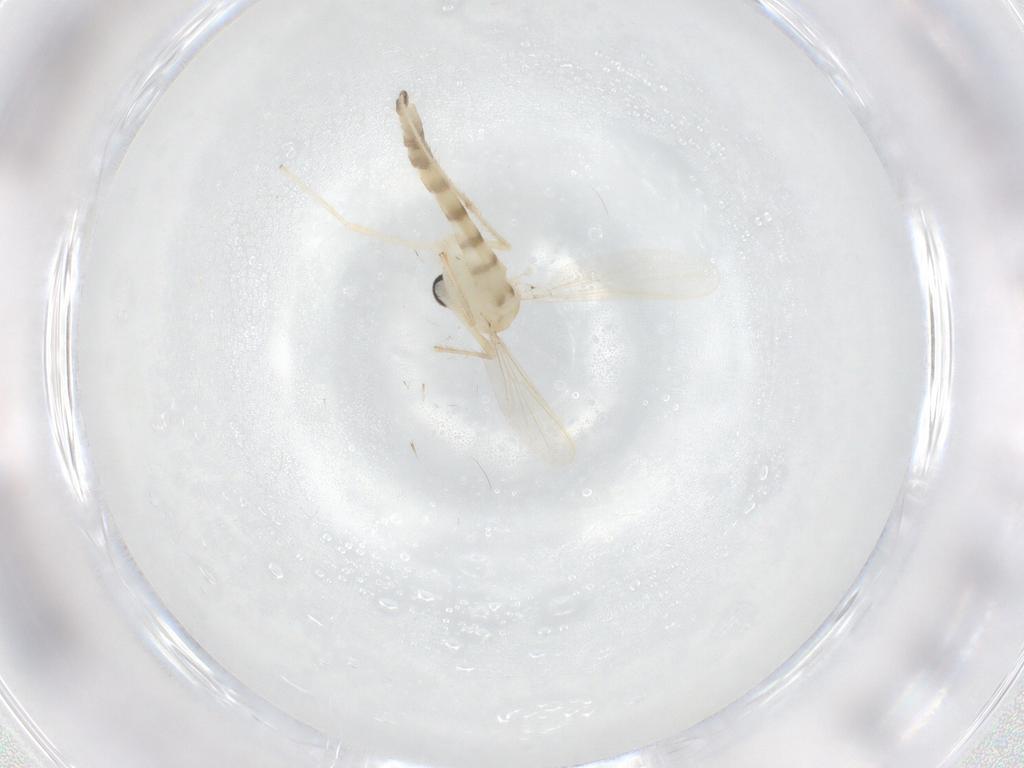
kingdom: Animalia
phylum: Arthropoda
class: Insecta
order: Diptera
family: Chironomidae
